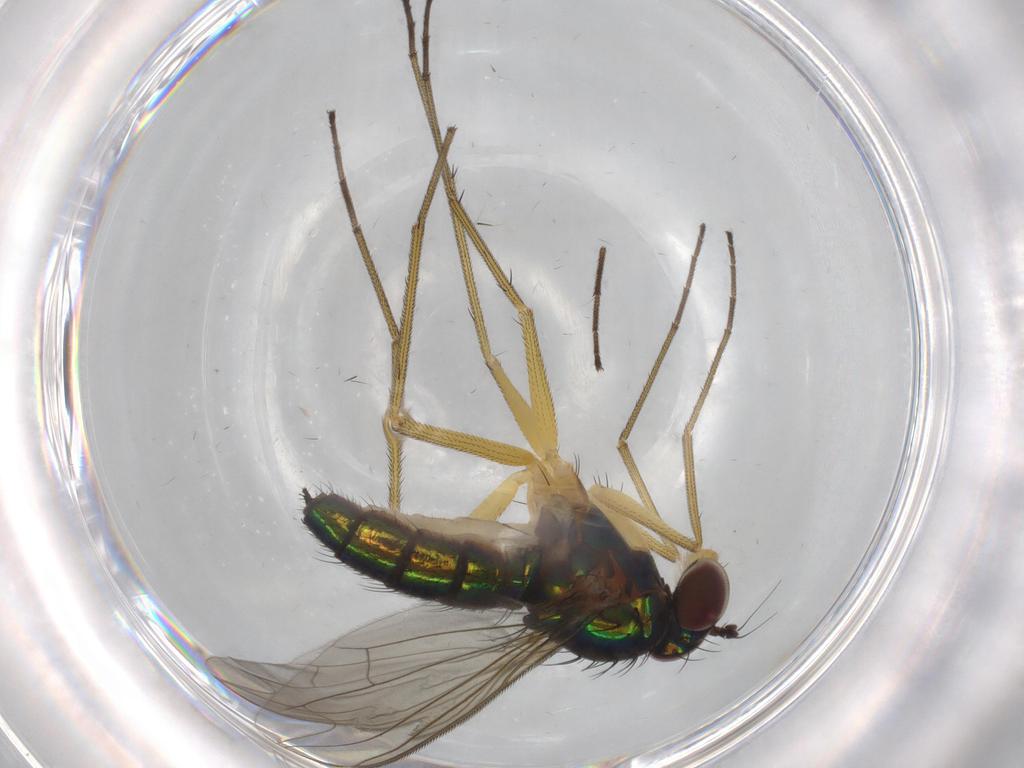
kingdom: Animalia
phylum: Arthropoda
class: Insecta
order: Diptera
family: Dolichopodidae
